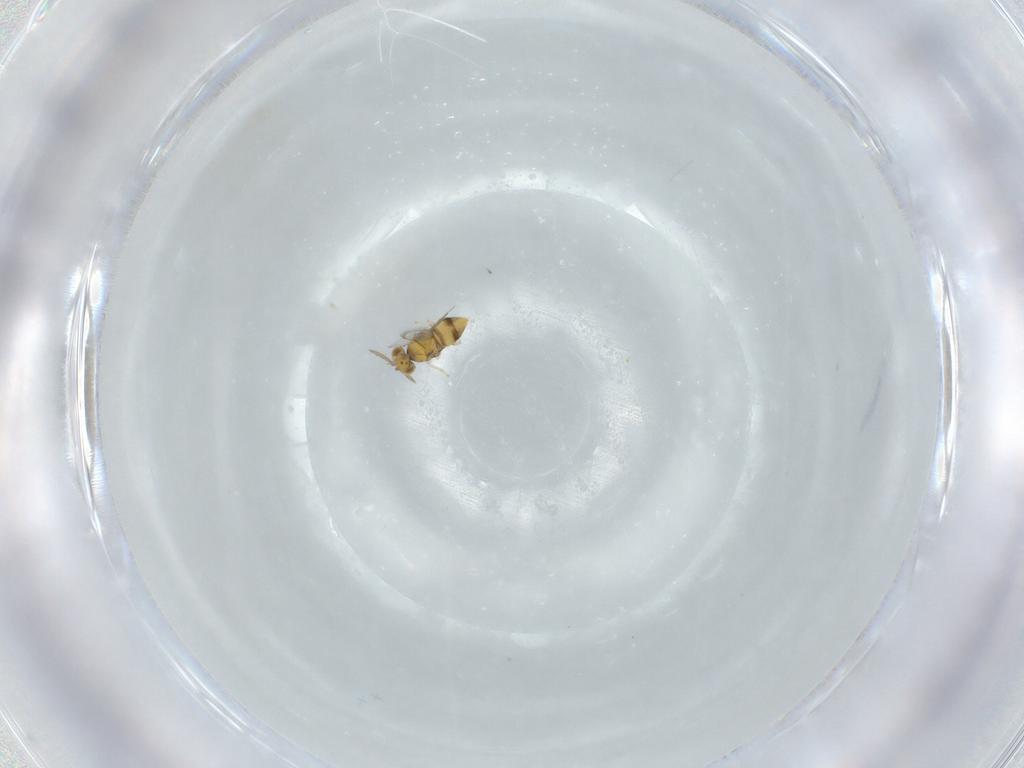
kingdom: Animalia
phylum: Arthropoda
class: Insecta
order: Hymenoptera
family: Aphelinidae
